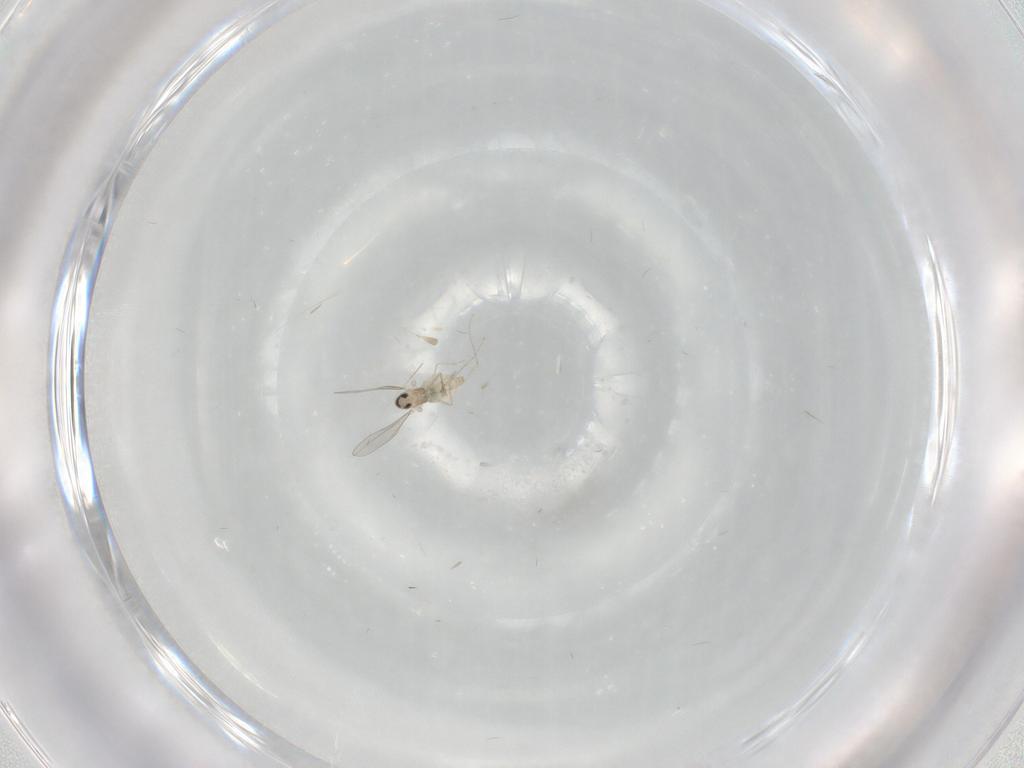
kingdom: Animalia
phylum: Arthropoda
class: Insecta
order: Diptera
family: Cecidomyiidae
